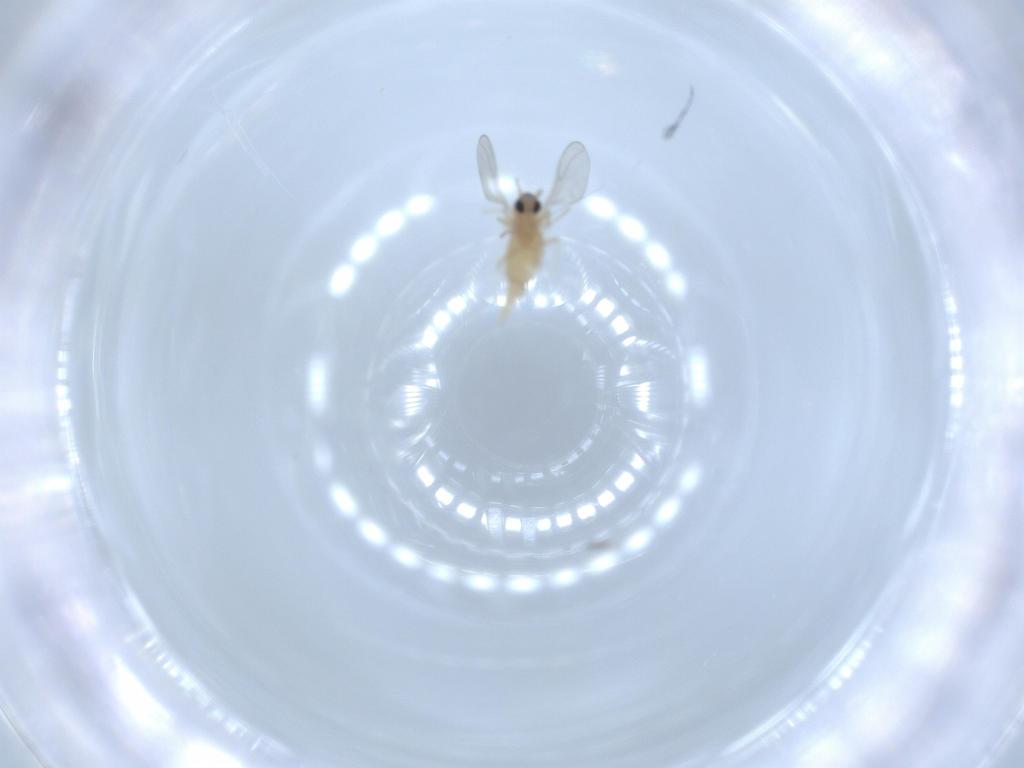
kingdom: Animalia
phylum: Arthropoda
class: Insecta
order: Diptera
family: Cecidomyiidae
